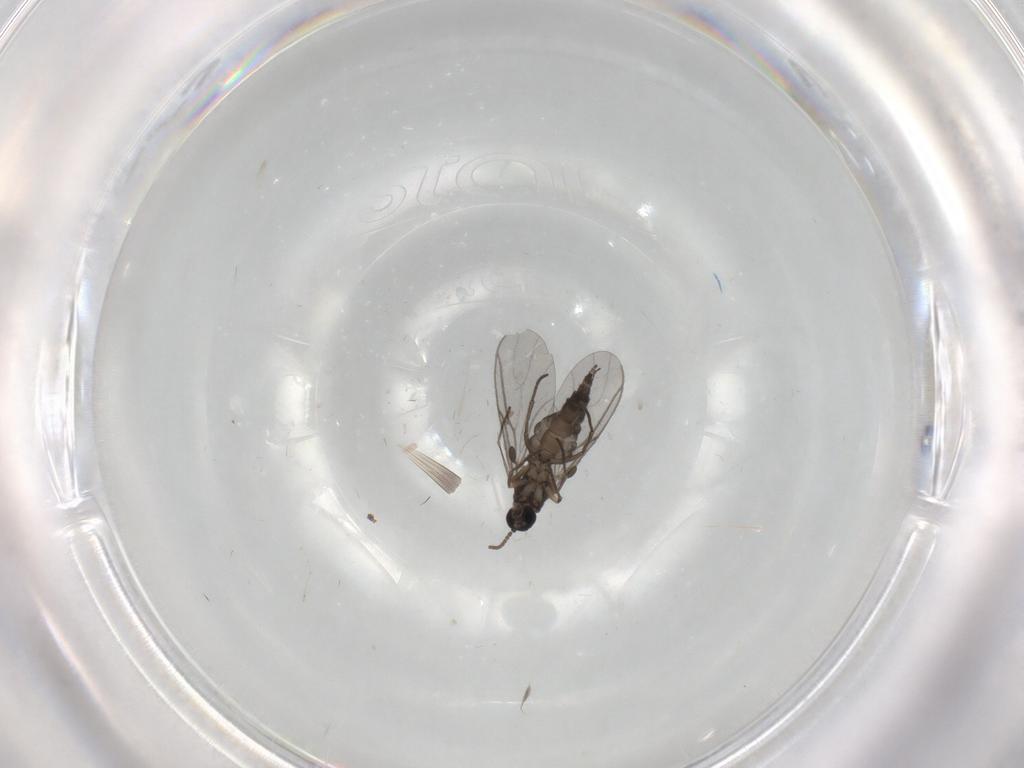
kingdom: Animalia
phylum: Arthropoda
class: Insecta
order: Diptera
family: Cecidomyiidae
